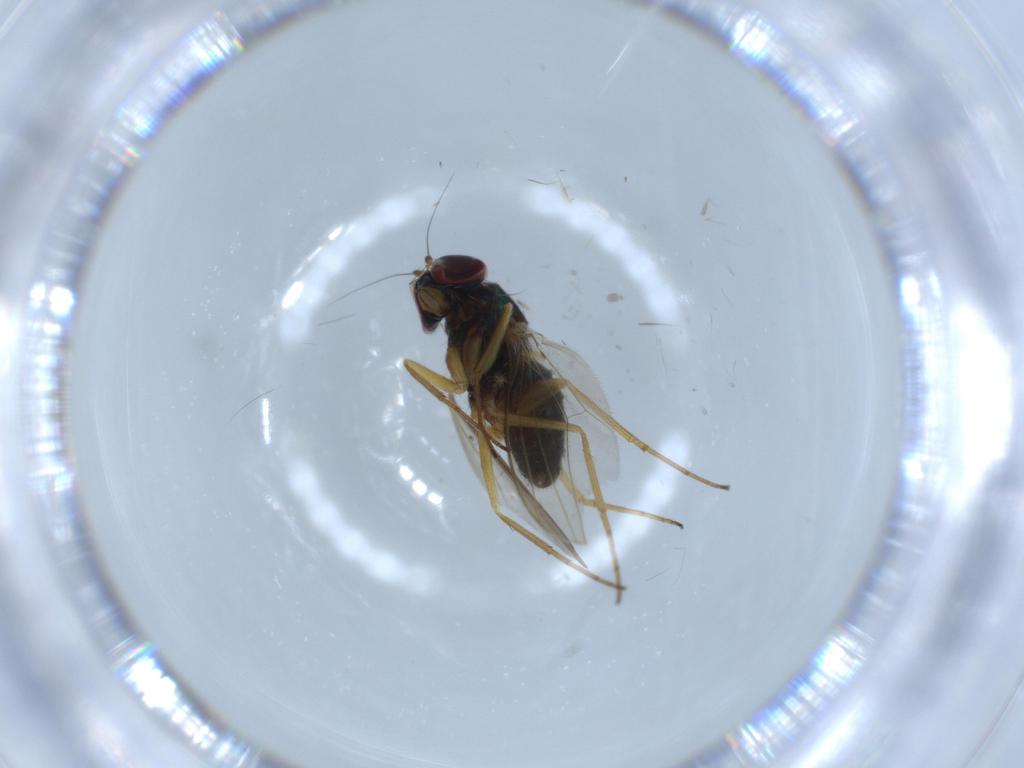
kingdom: Animalia
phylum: Arthropoda
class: Insecta
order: Diptera
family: Dolichopodidae
